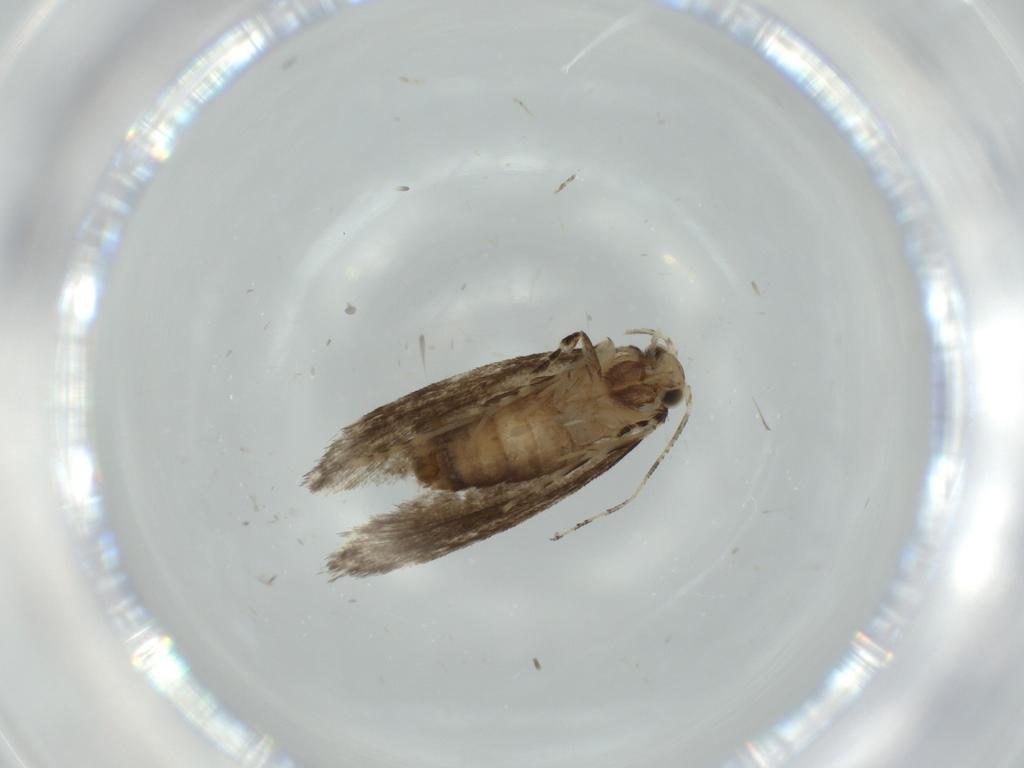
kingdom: Animalia
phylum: Arthropoda
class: Insecta
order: Lepidoptera
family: Tineidae
